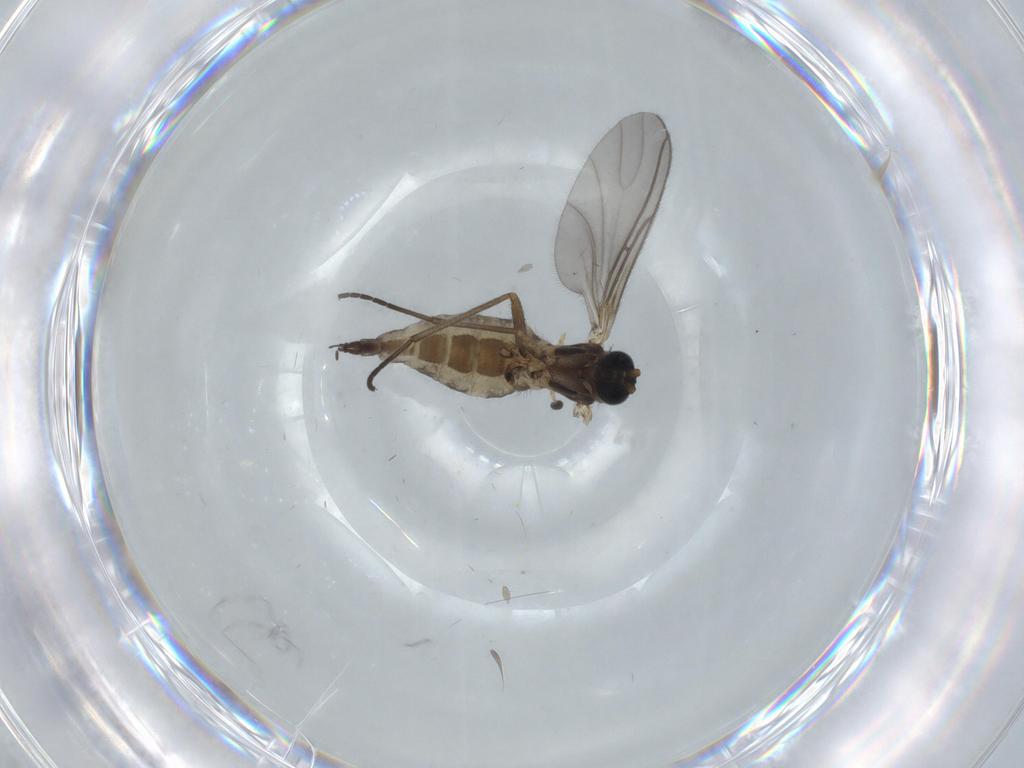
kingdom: Animalia
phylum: Arthropoda
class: Insecta
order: Diptera
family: Sciaridae
